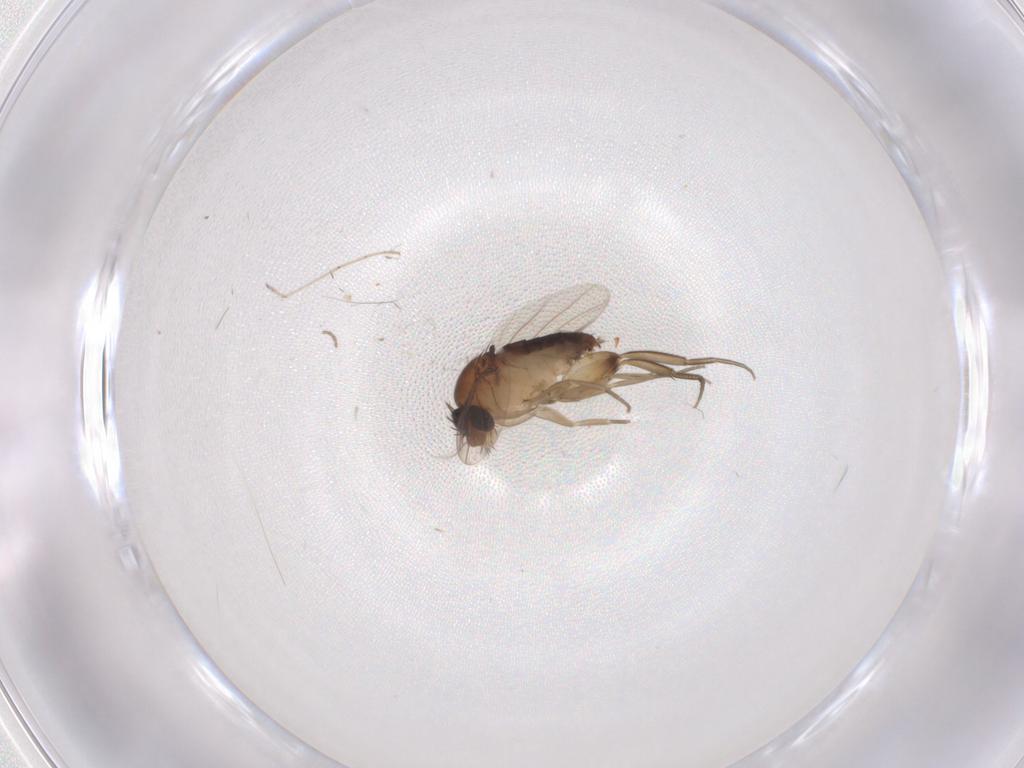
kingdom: Animalia
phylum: Arthropoda
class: Insecta
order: Diptera
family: Phoridae
